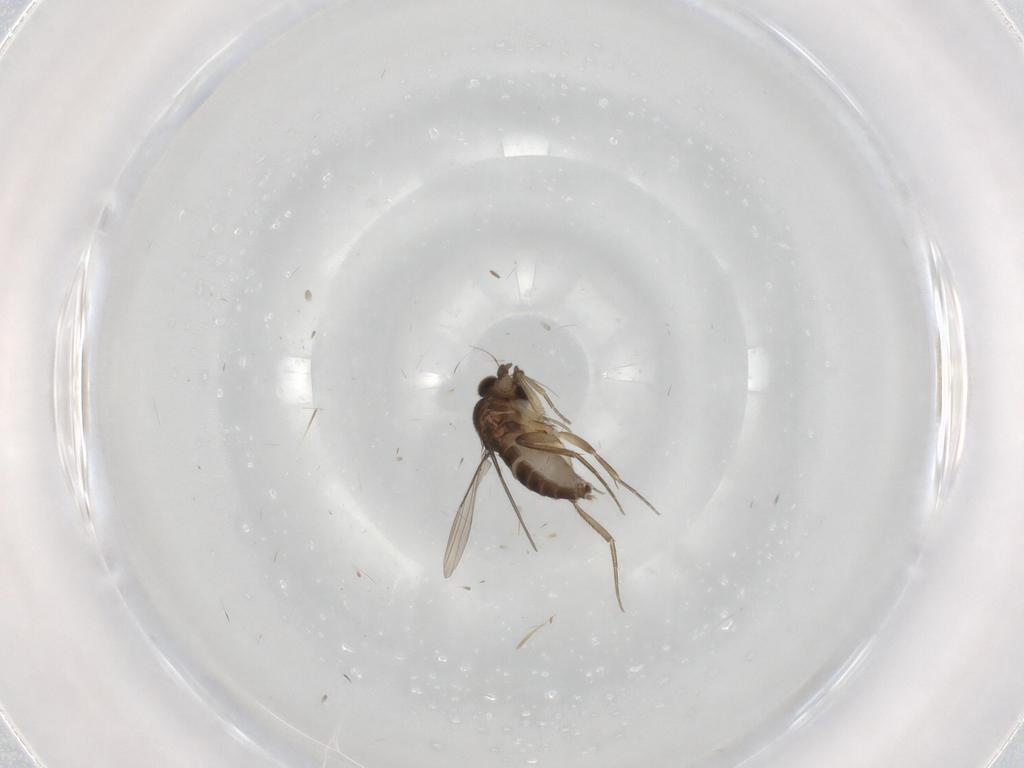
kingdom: Animalia
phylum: Arthropoda
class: Insecta
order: Diptera
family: Phoridae
